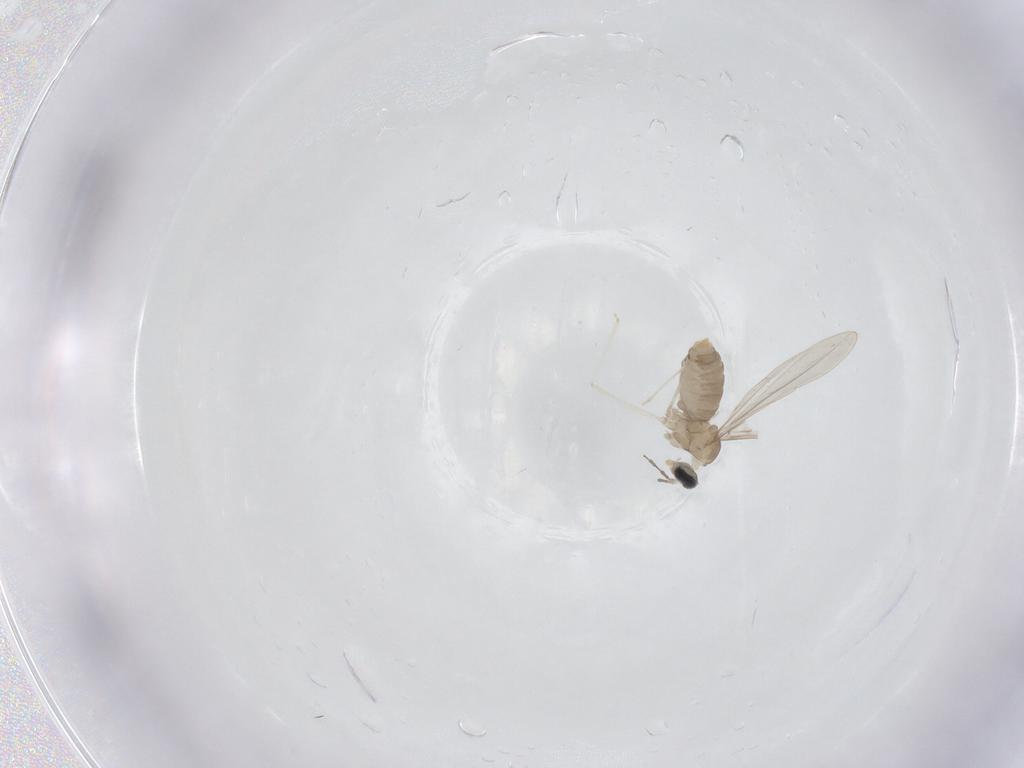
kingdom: Animalia
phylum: Arthropoda
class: Insecta
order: Diptera
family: Cecidomyiidae
